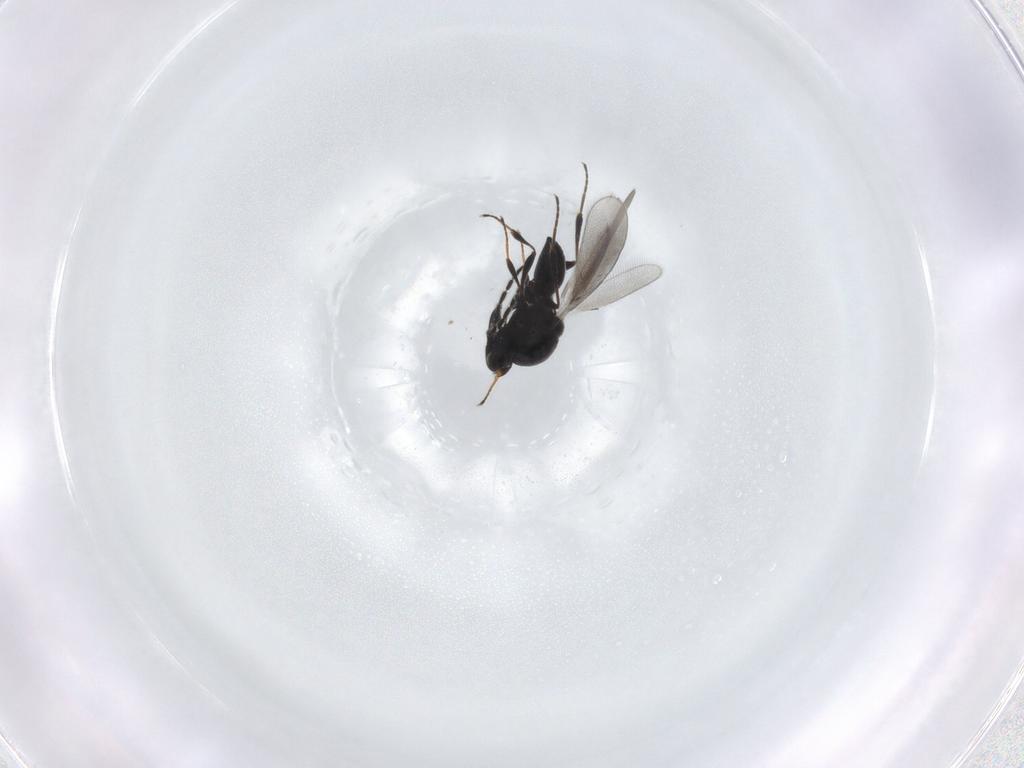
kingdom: Animalia
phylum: Arthropoda
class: Insecta
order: Hymenoptera
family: Platygastridae
